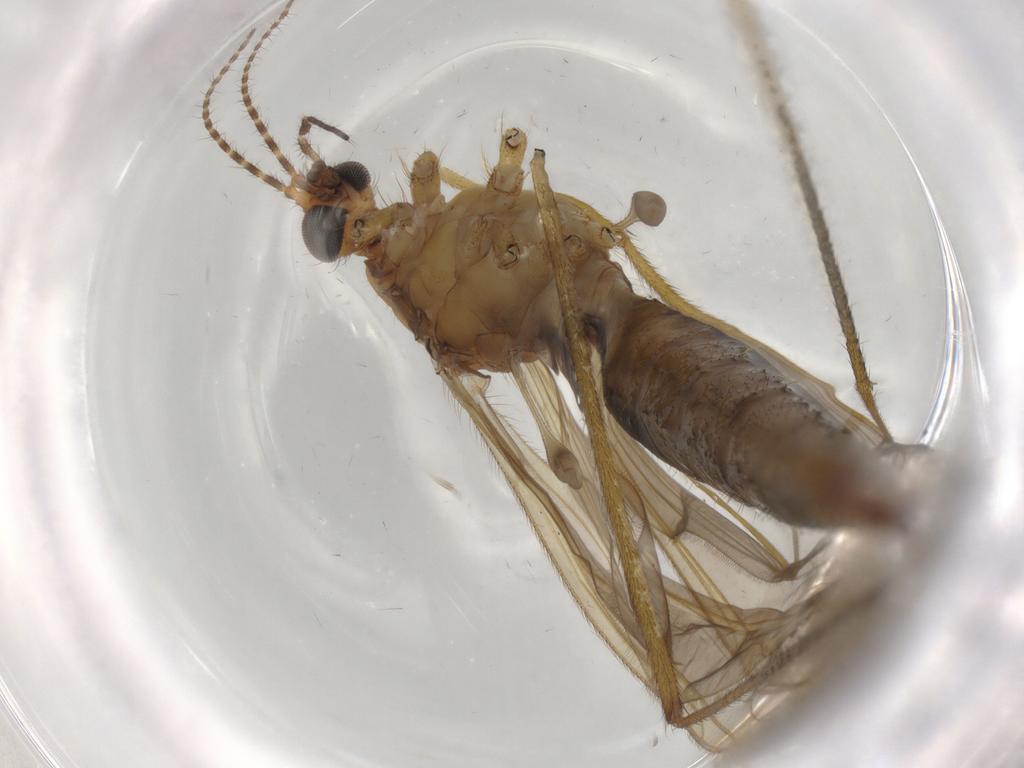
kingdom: Animalia
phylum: Arthropoda
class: Insecta
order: Diptera
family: Limoniidae
